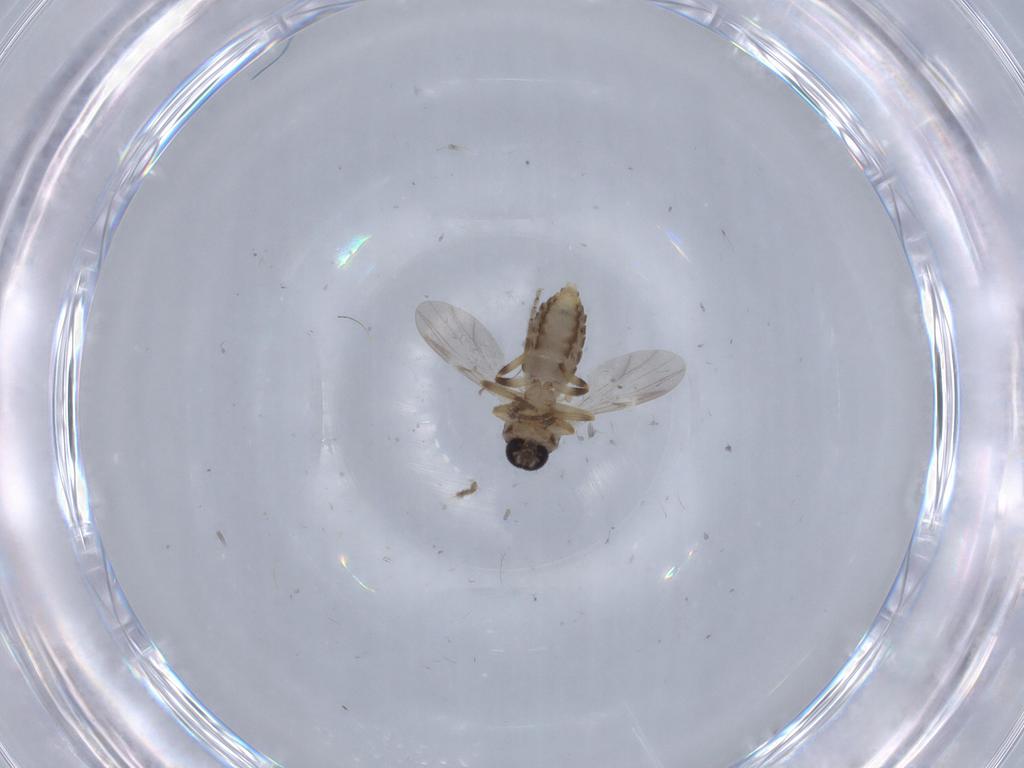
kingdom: Animalia
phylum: Arthropoda
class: Insecta
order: Diptera
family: Ceratopogonidae
